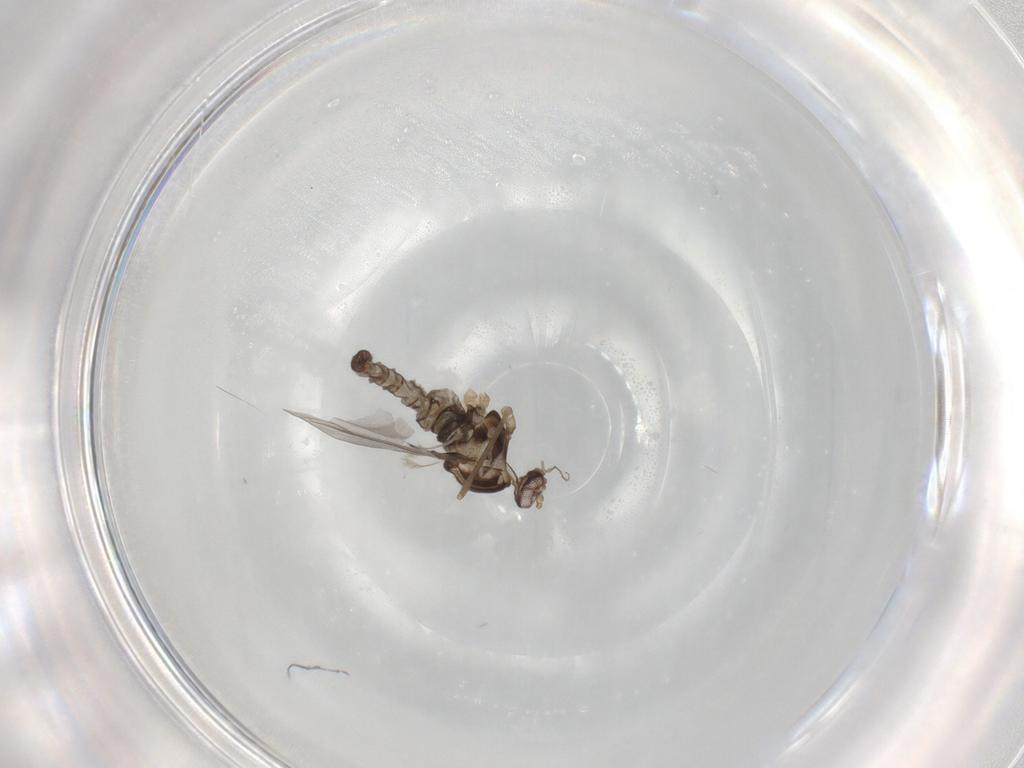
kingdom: Animalia
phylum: Arthropoda
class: Insecta
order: Diptera
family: Cecidomyiidae
